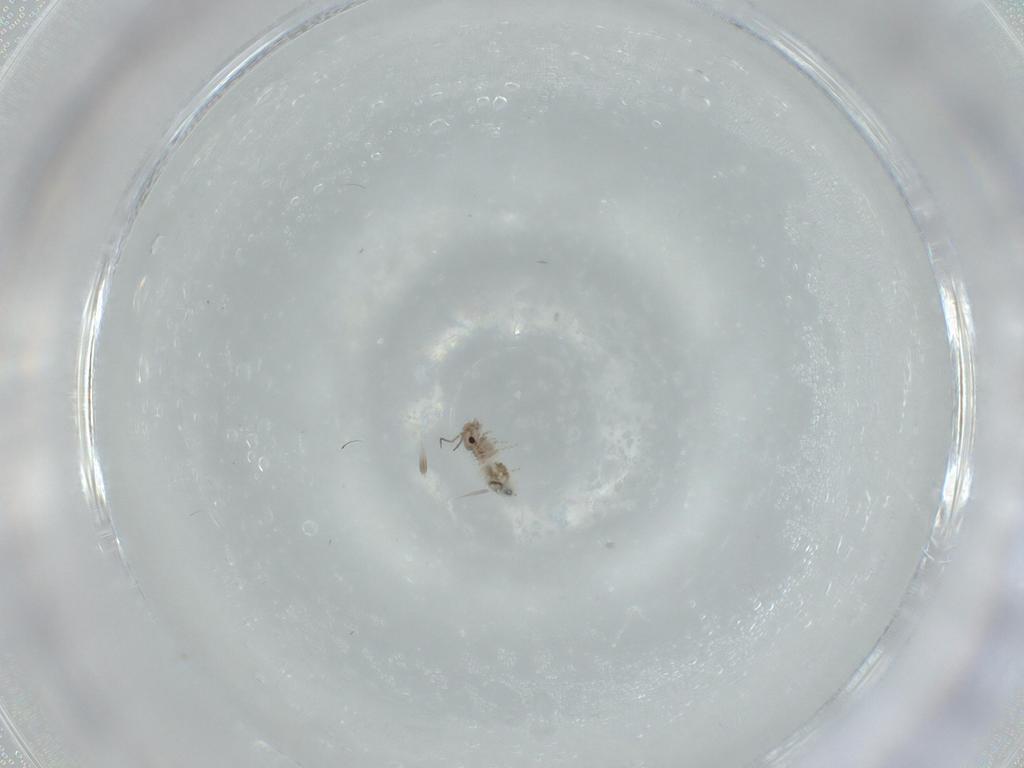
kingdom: Animalia
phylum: Arthropoda
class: Insecta
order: Psocodea
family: Lepidopsocidae
